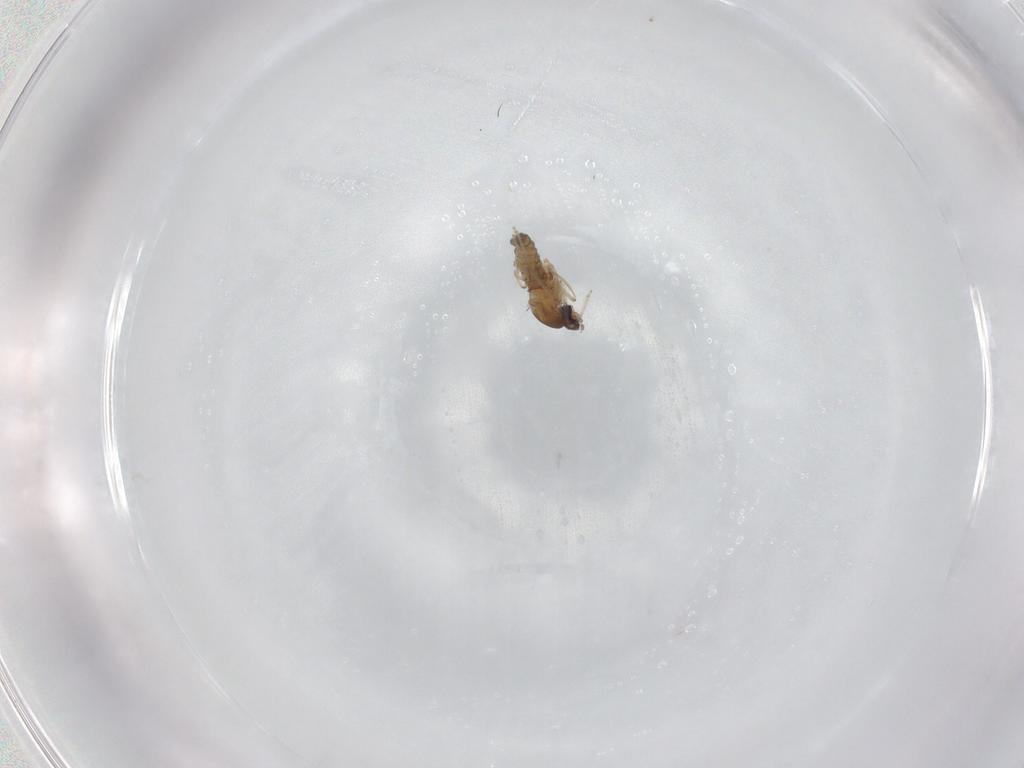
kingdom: Animalia
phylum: Arthropoda
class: Insecta
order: Diptera
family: Cecidomyiidae
